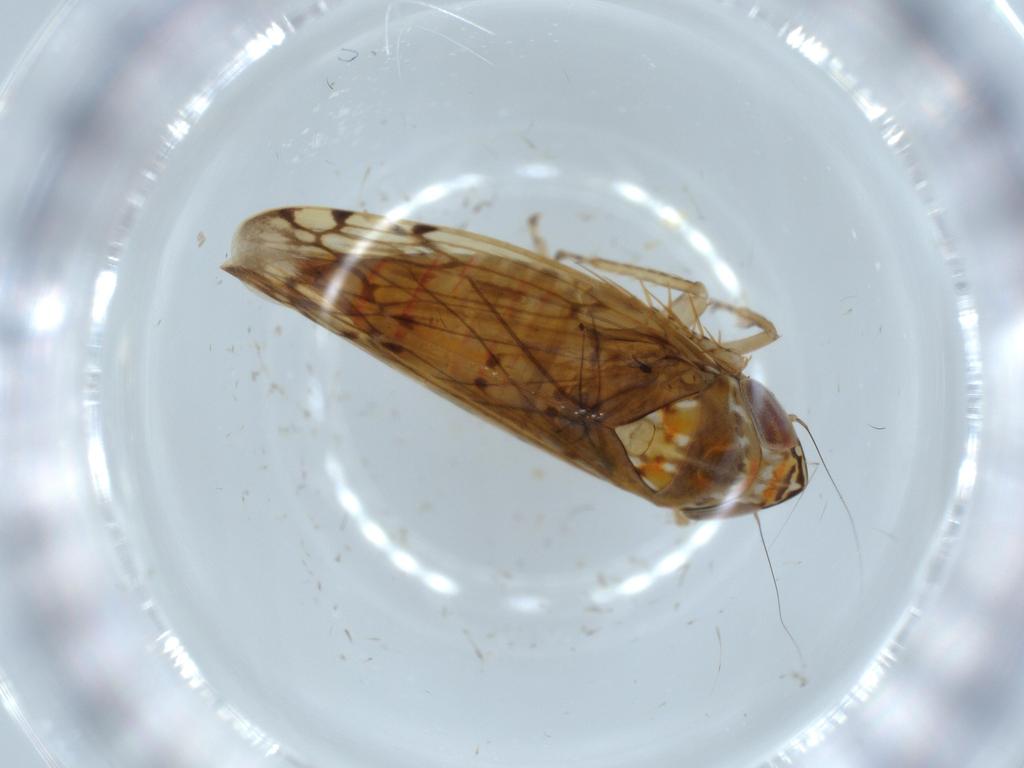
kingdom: Animalia
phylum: Arthropoda
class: Insecta
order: Hemiptera
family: Cicadellidae
